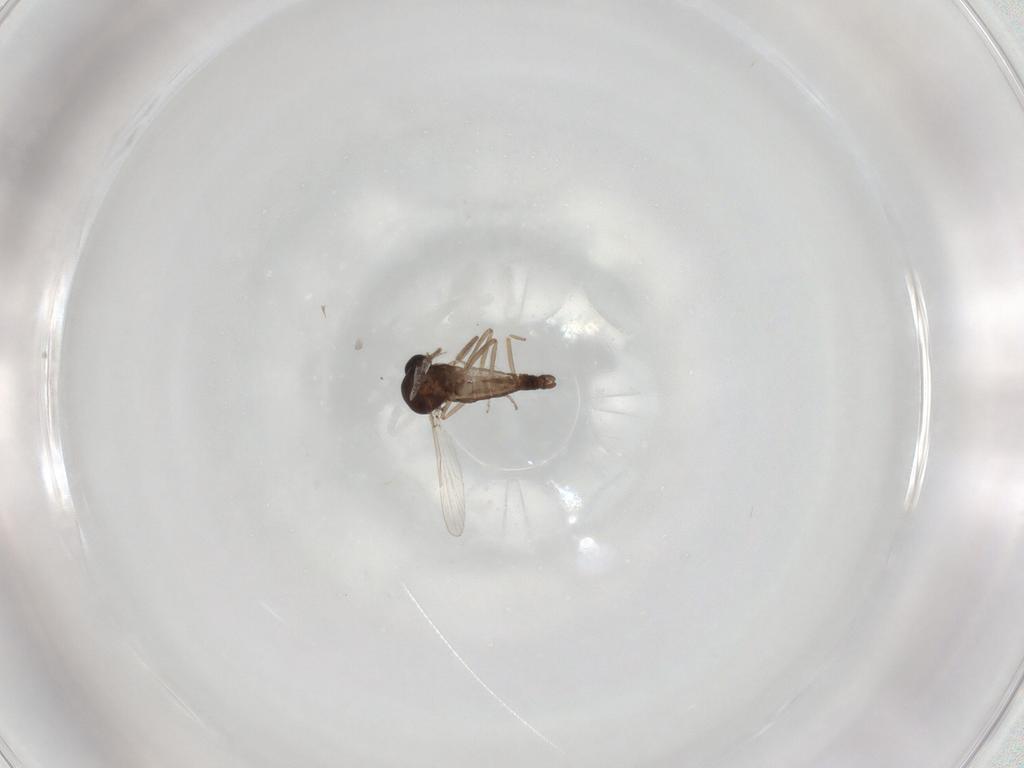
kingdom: Animalia
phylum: Arthropoda
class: Insecta
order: Diptera
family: Ceratopogonidae
